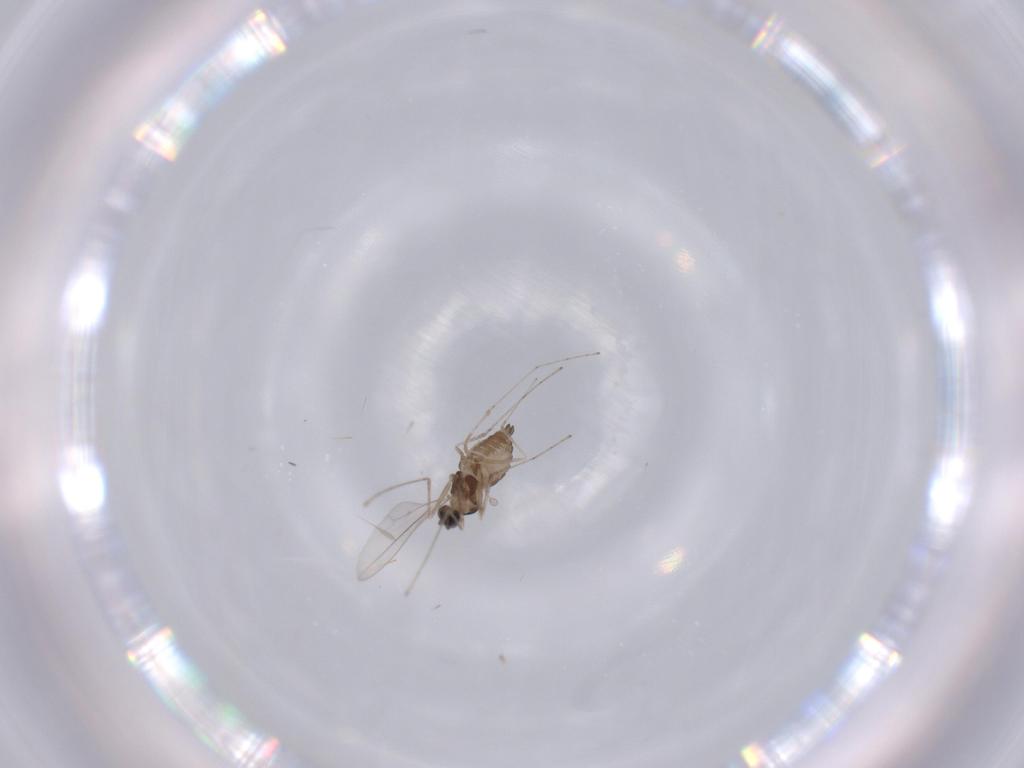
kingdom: Animalia
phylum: Arthropoda
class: Insecta
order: Diptera
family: Cecidomyiidae
